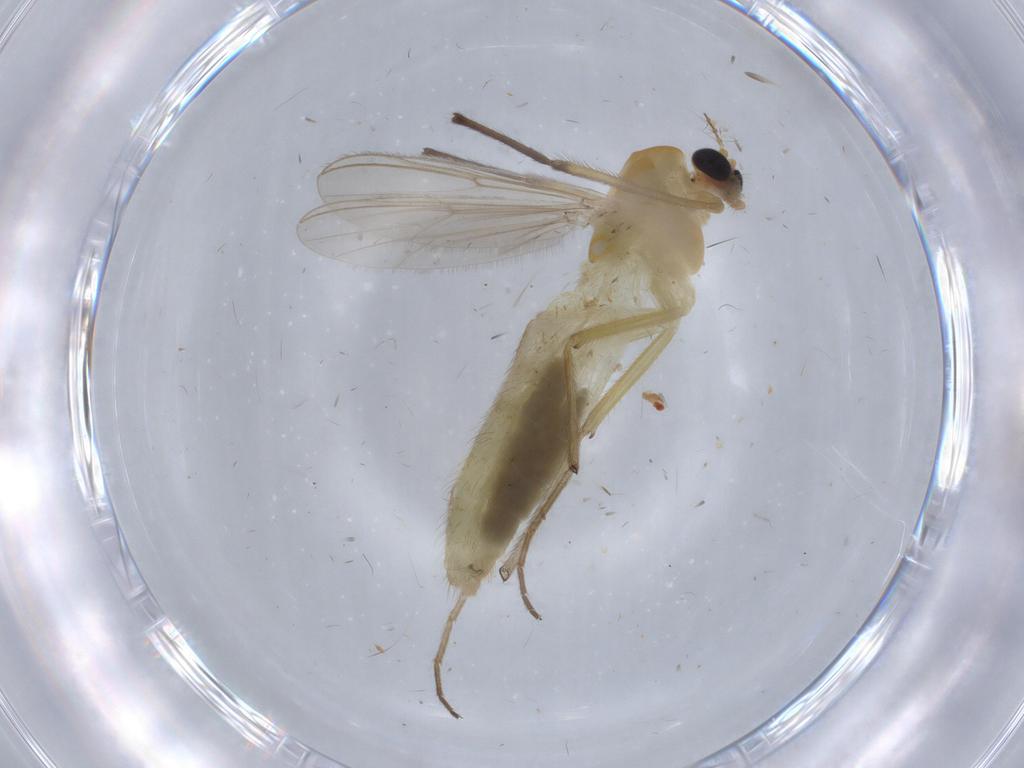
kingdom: Animalia
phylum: Arthropoda
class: Insecta
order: Diptera
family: Chironomidae
